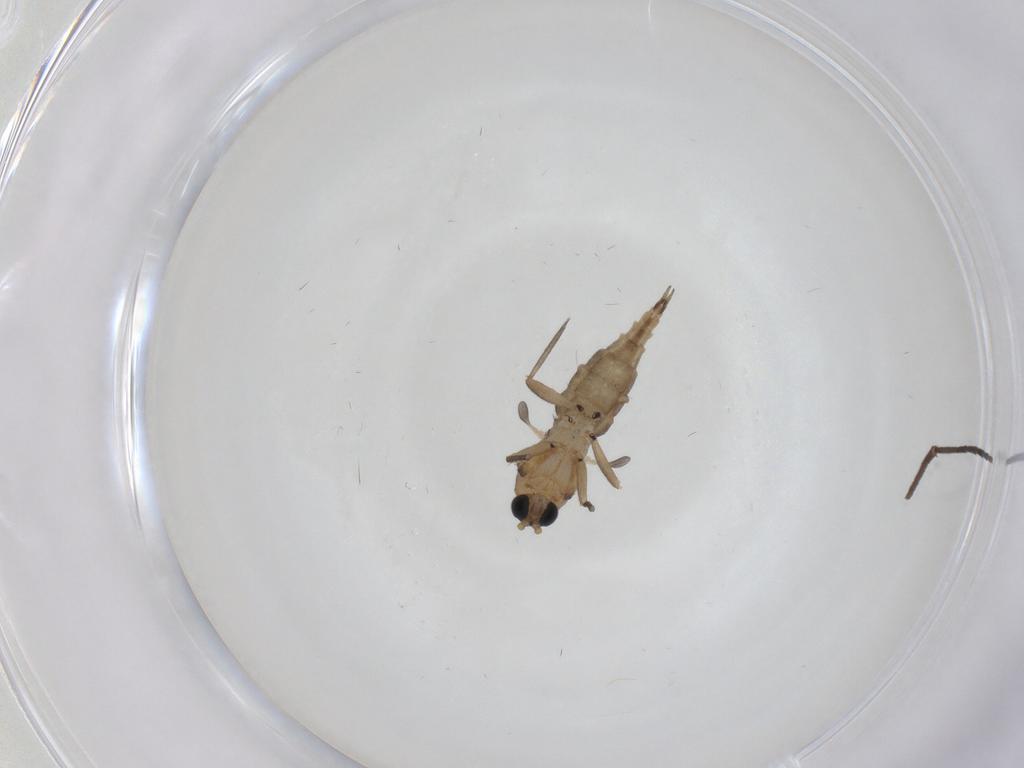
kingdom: Animalia
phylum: Arthropoda
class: Insecta
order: Diptera
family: Sciaridae
